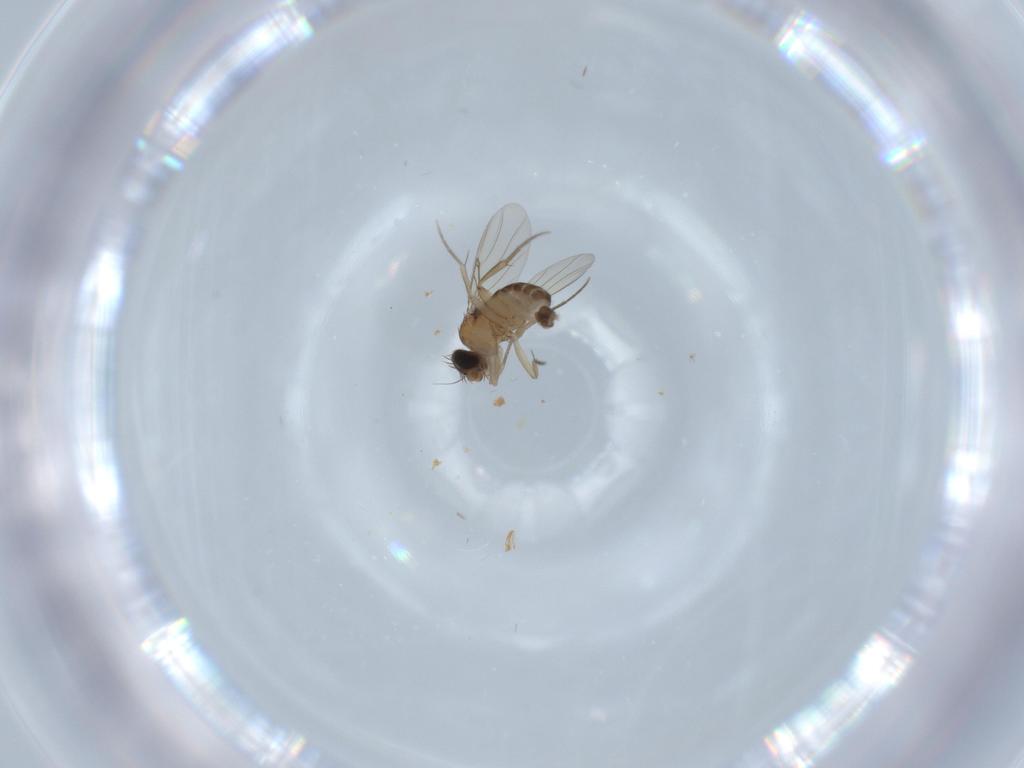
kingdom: Animalia
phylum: Arthropoda
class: Insecta
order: Diptera
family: Phoridae
